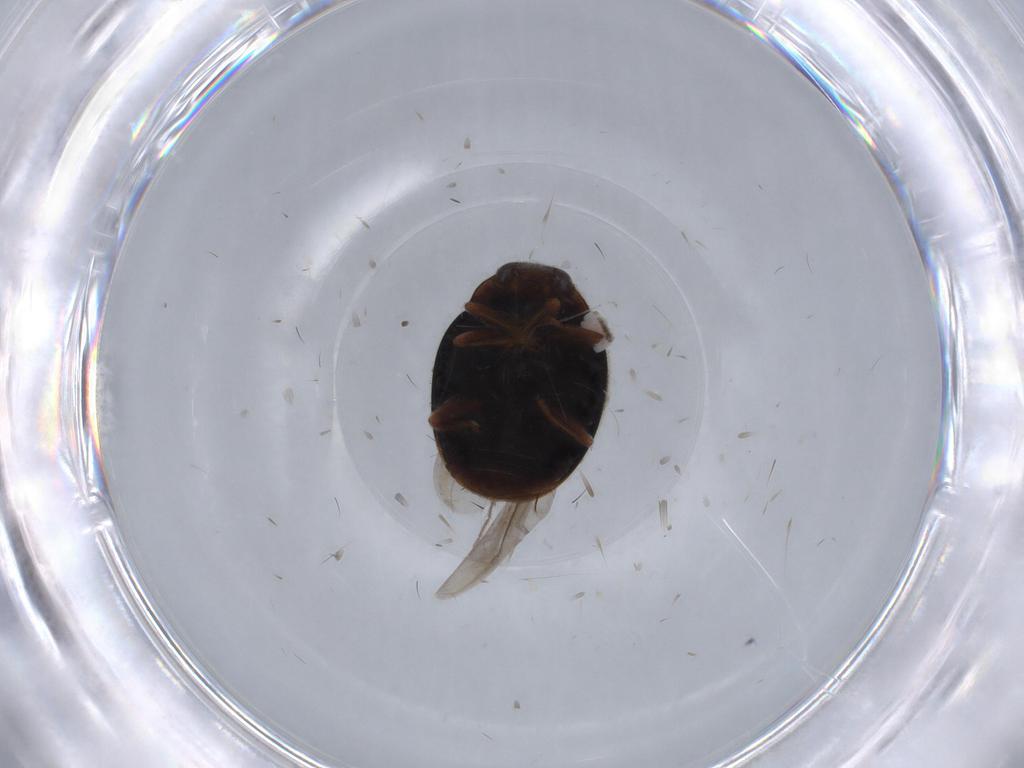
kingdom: Animalia
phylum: Arthropoda
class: Insecta
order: Coleoptera
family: Coccinellidae
